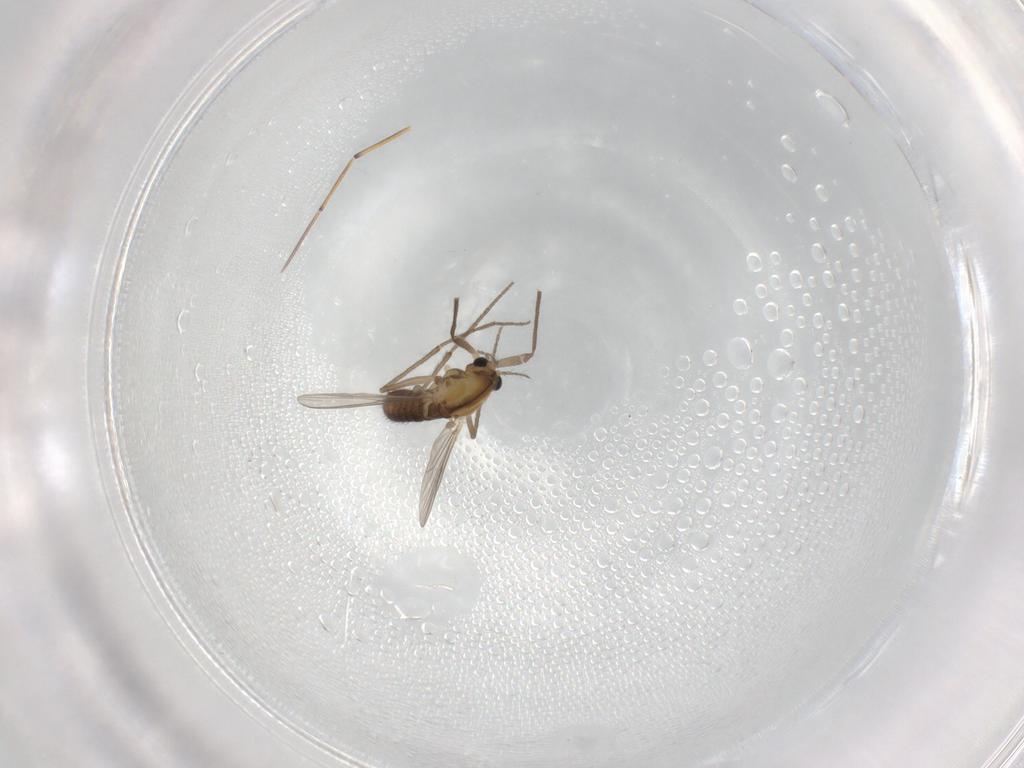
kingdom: Animalia
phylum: Arthropoda
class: Insecta
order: Diptera
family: Chironomidae
